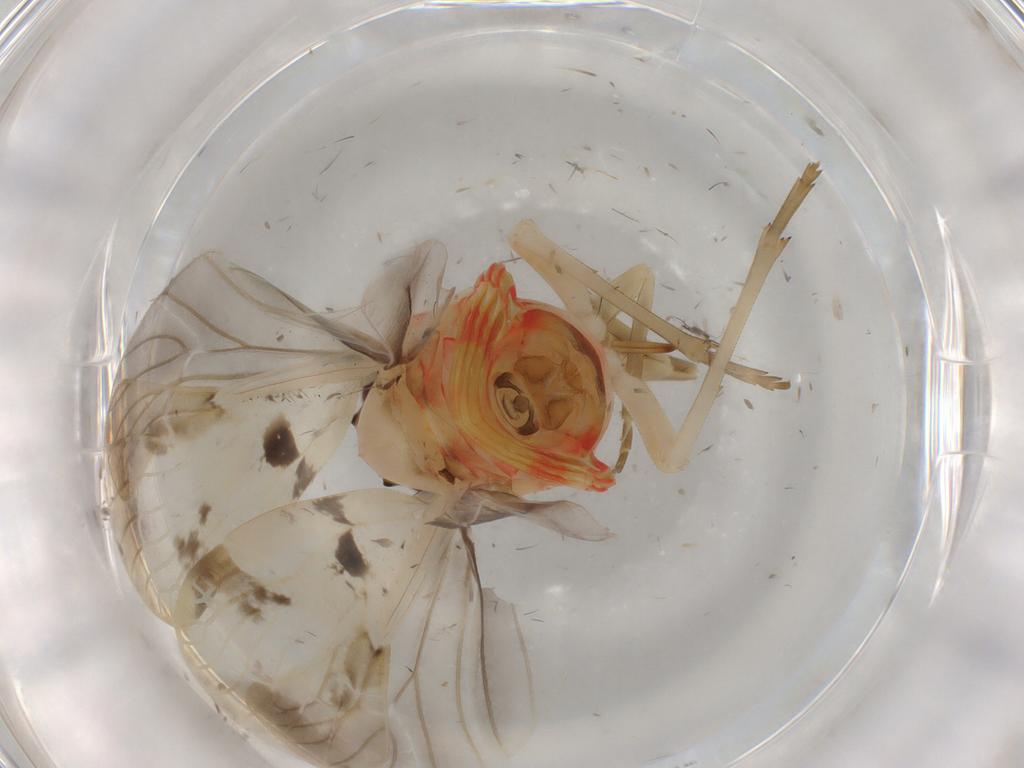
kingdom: Animalia
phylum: Arthropoda
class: Insecta
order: Hemiptera
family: Achilidae
